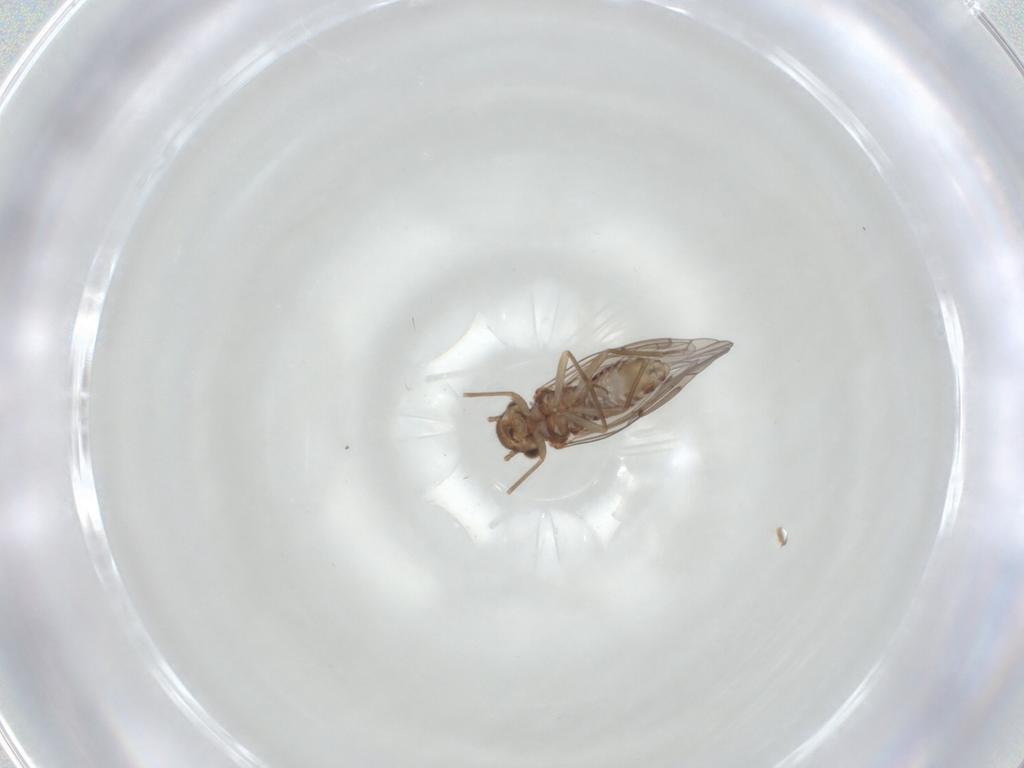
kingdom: Animalia
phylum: Arthropoda
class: Insecta
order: Psocodea
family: Lachesillidae
